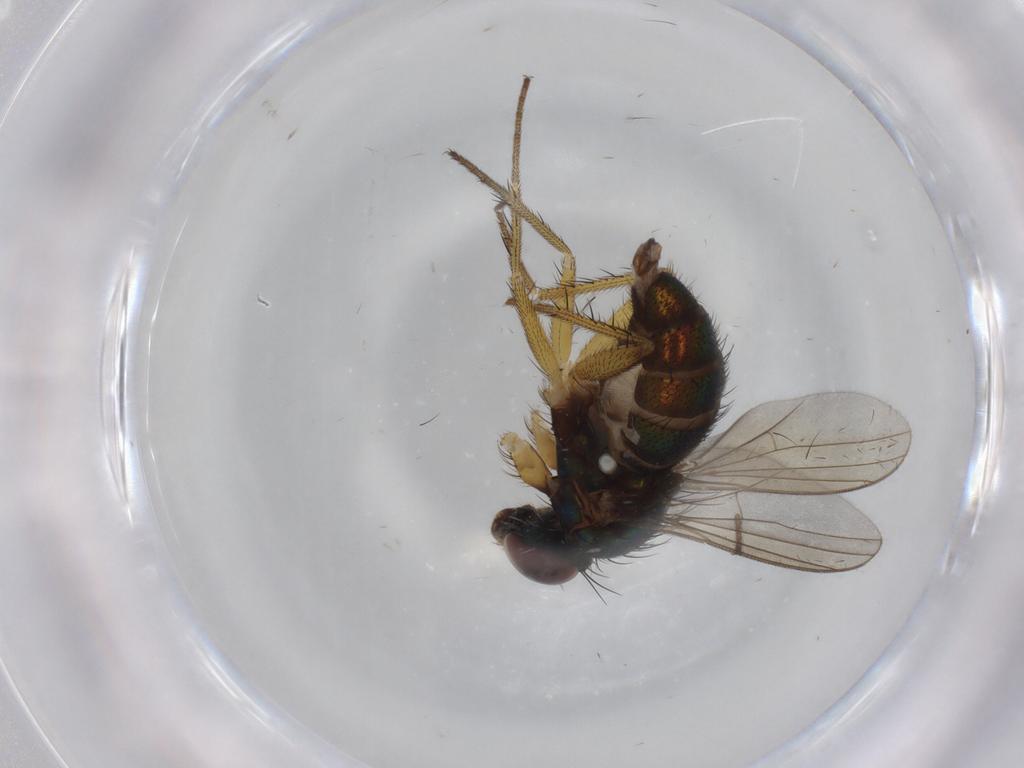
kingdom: Animalia
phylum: Arthropoda
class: Insecta
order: Diptera
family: Dolichopodidae
